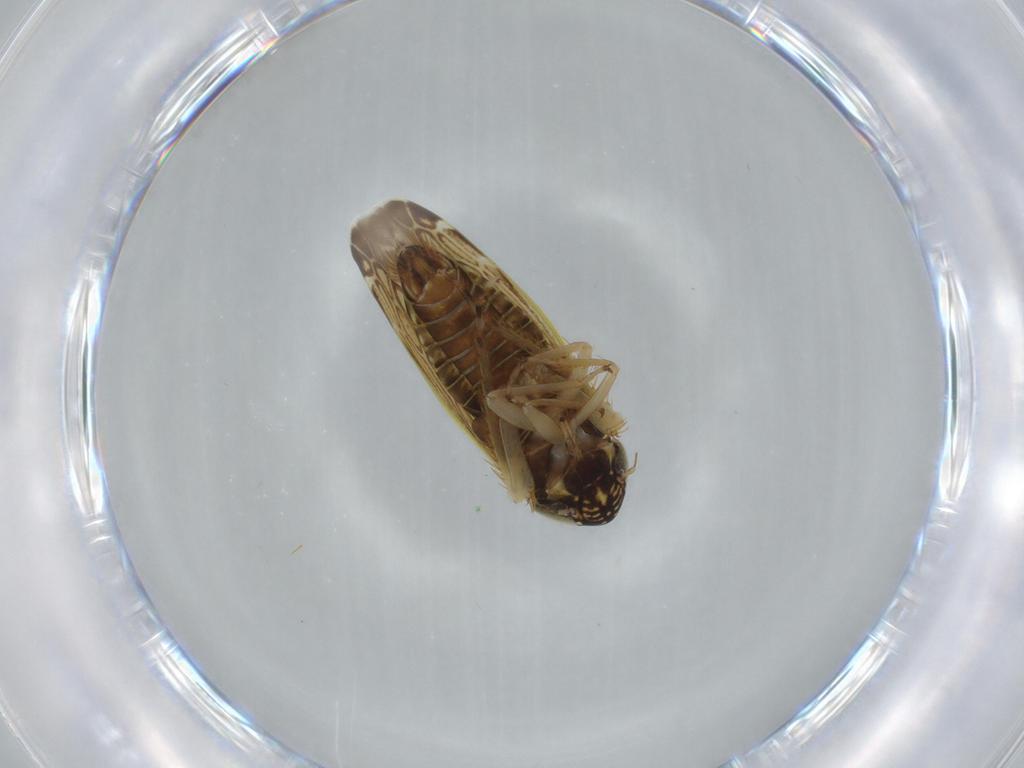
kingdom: Animalia
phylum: Arthropoda
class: Insecta
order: Hemiptera
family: Cicadellidae
